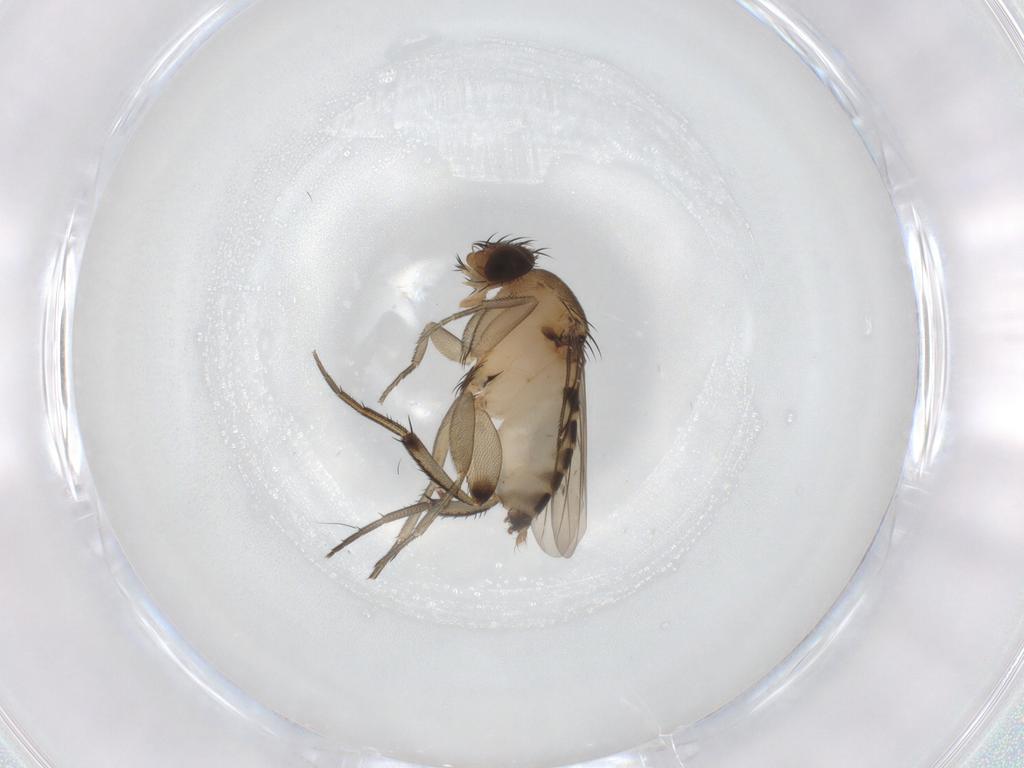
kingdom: Animalia
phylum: Arthropoda
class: Insecta
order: Diptera
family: Phoridae
